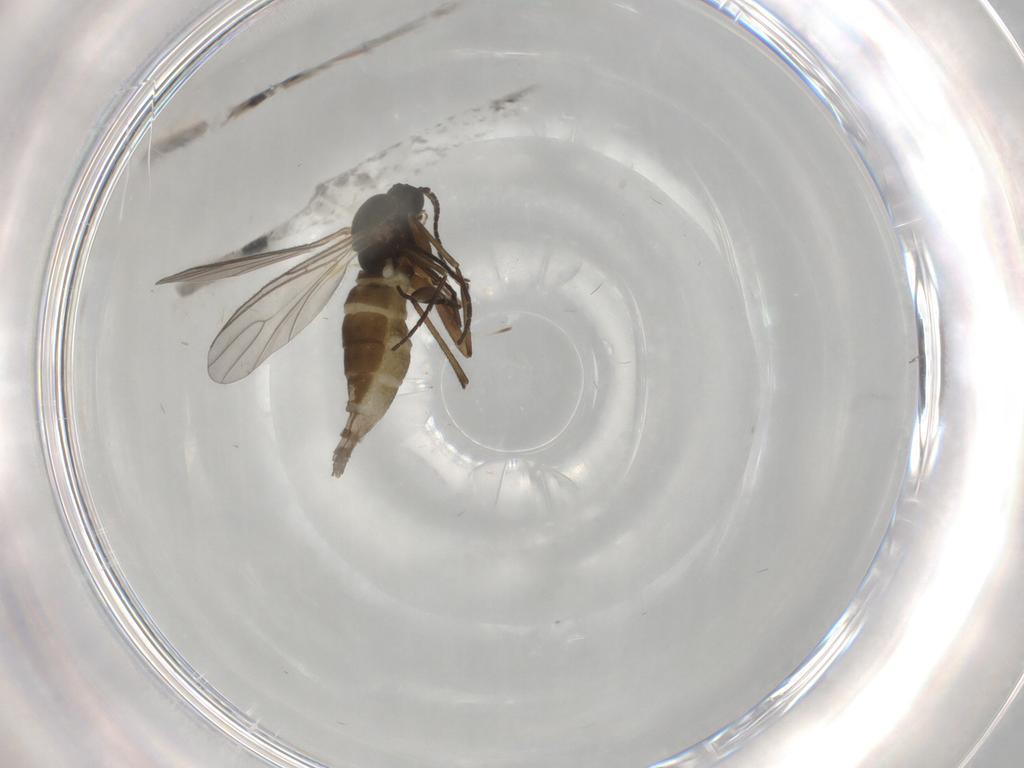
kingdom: Animalia
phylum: Arthropoda
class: Insecta
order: Diptera
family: Sciaridae
